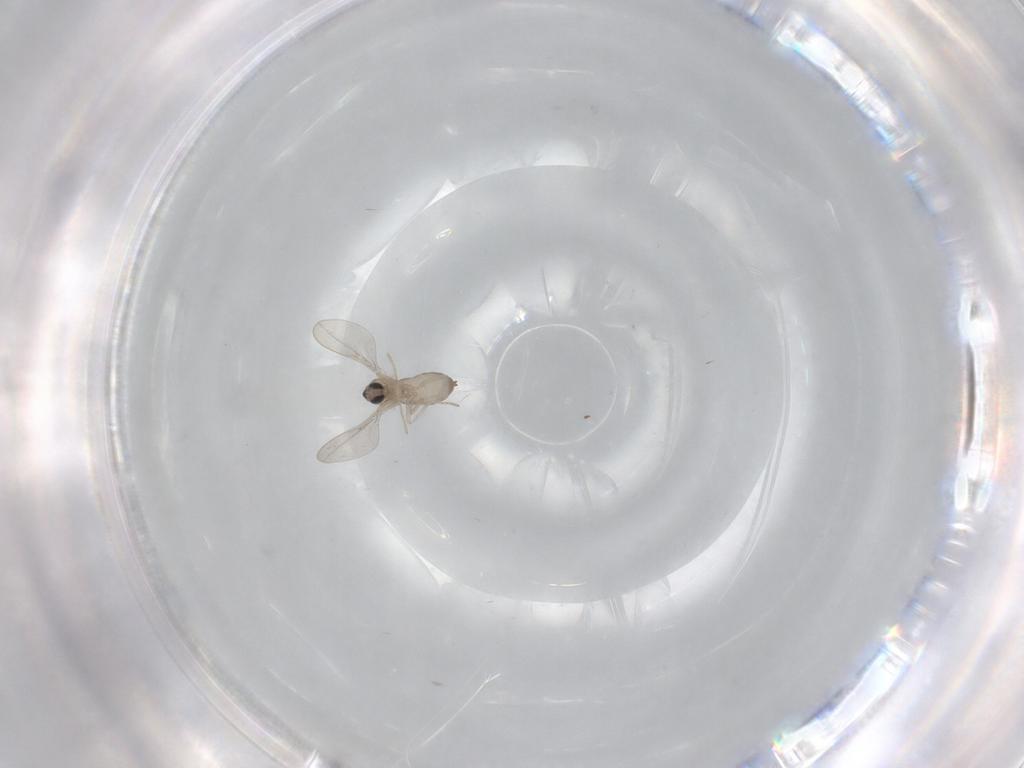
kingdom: Animalia
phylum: Arthropoda
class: Insecta
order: Diptera
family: Cecidomyiidae
